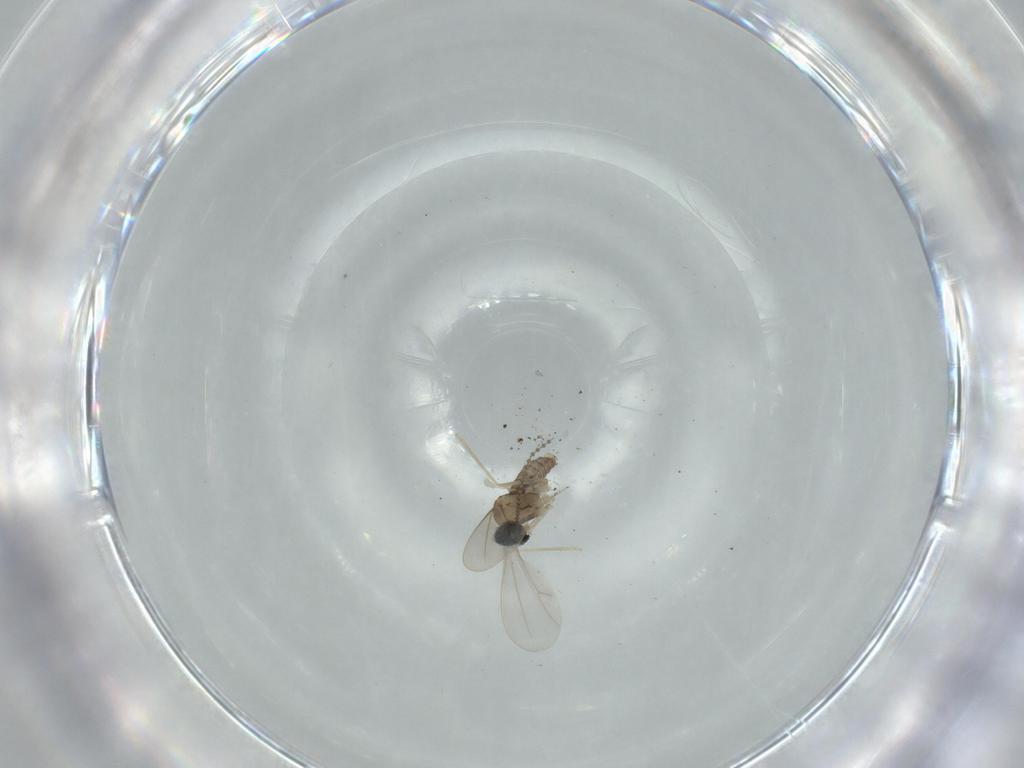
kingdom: Animalia
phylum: Arthropoda
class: Insecta
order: Diptera
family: Cecidomyiidae
